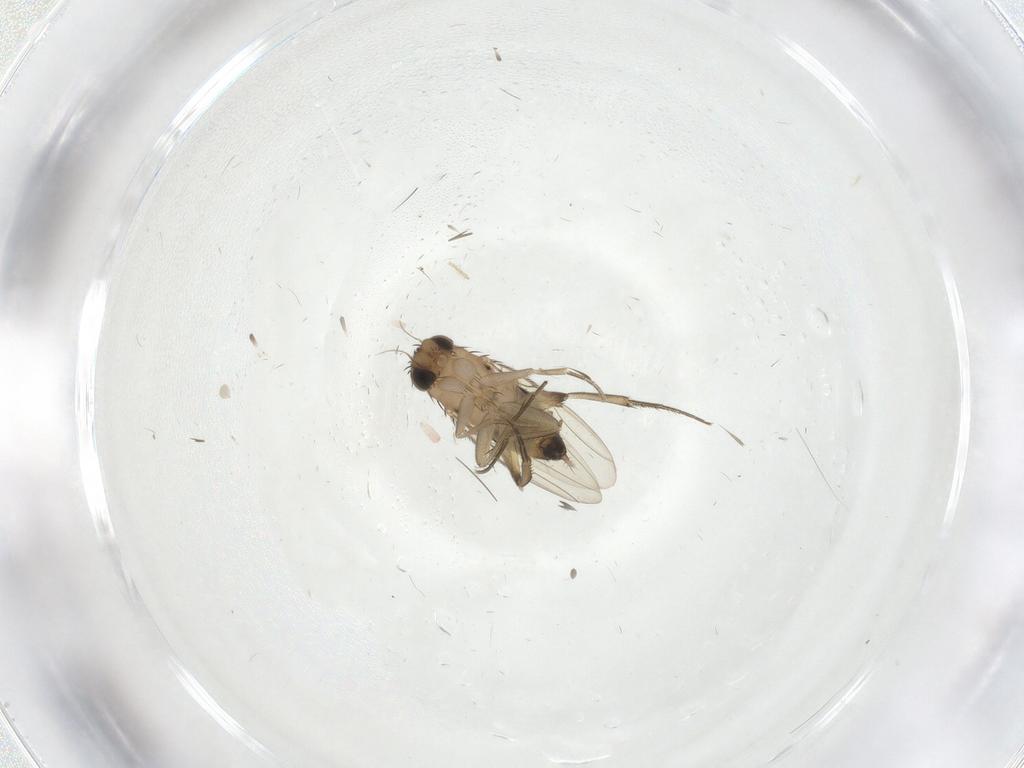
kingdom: Animalia
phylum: Arthropoda
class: Insecta
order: Diptera
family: Phoridae
